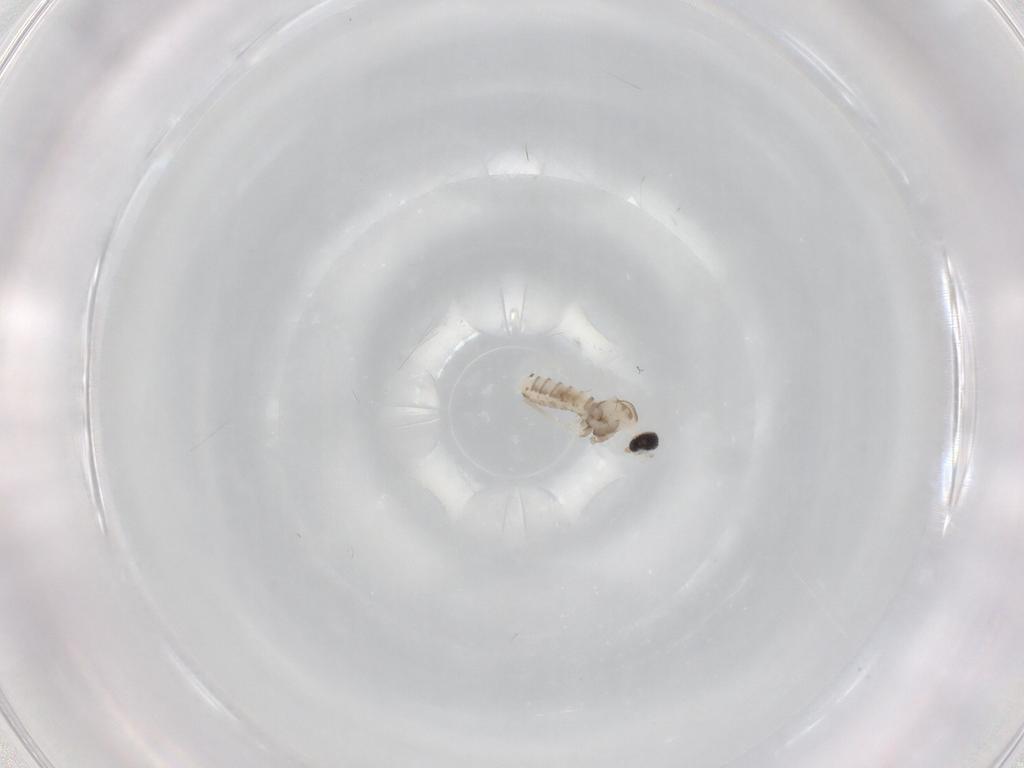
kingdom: Animalia
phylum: Arthropoda
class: Insecta
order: Diptera
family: Cecidomyiidae
